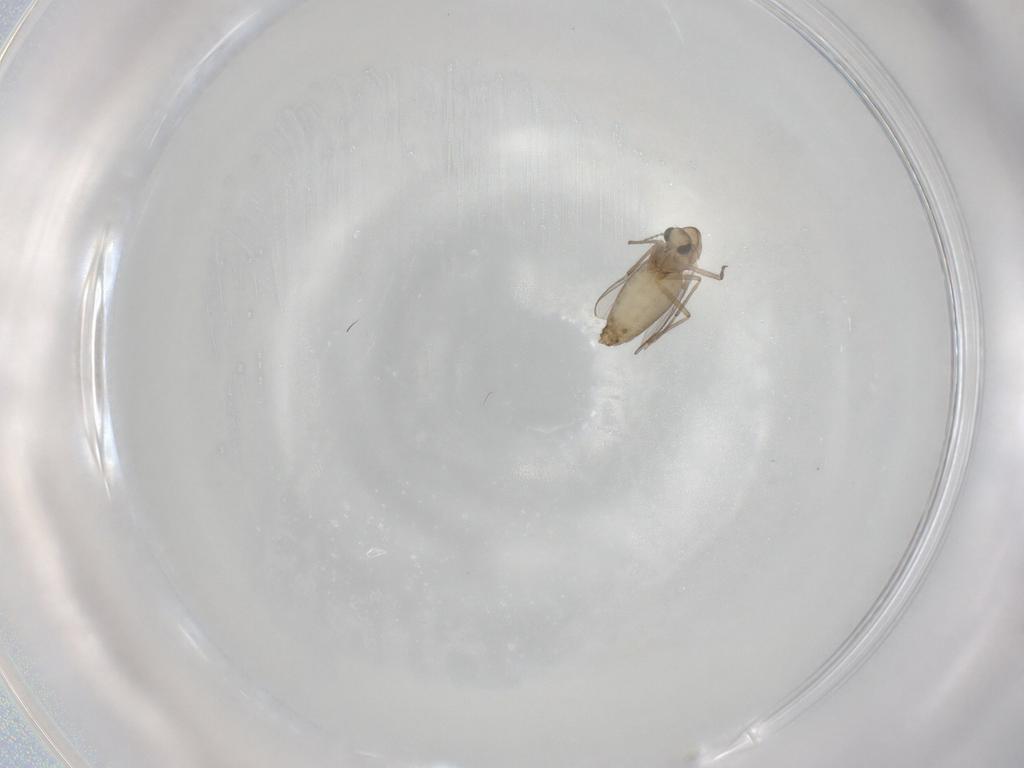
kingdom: Animalia
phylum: Arthropoda
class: Insecta
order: Diptera
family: Chironomidae
